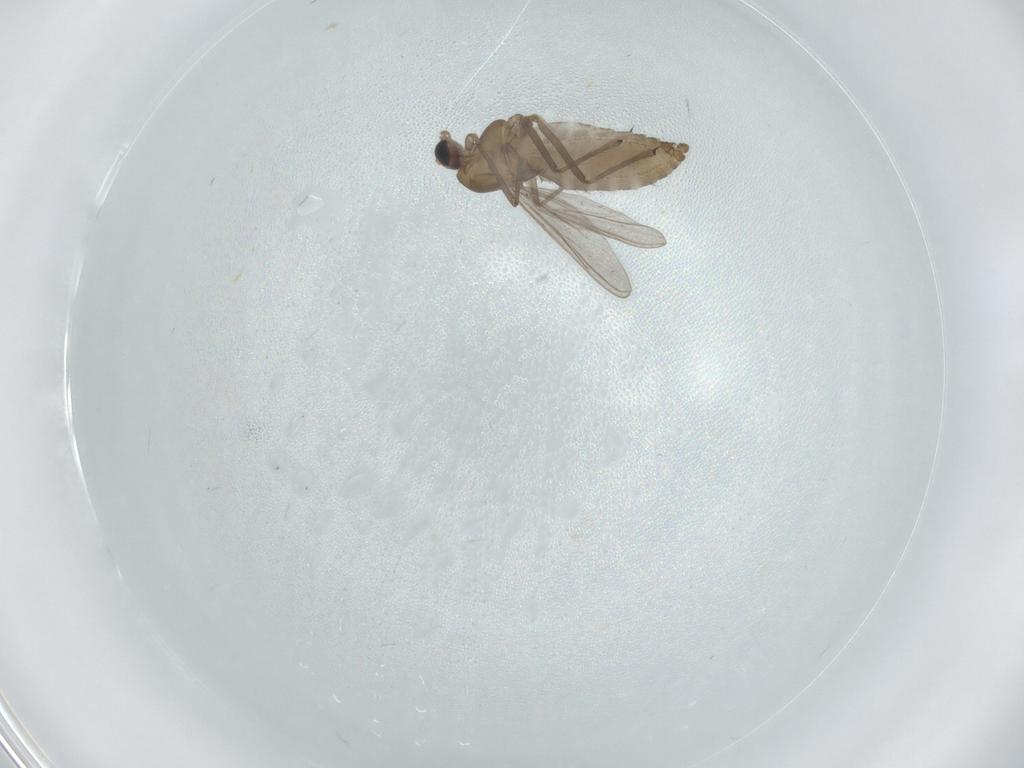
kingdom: Animalia
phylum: Arthropoda
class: Insecta
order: Diptera
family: Chironomidae
